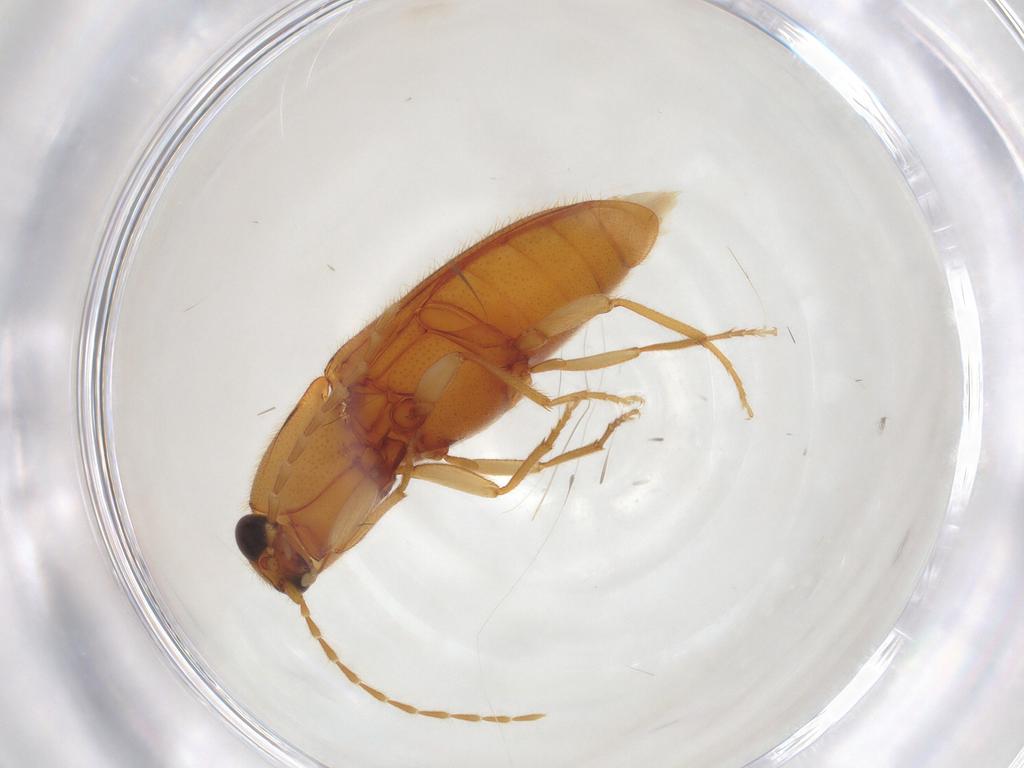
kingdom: Animalia
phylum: Arthropoda
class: Insecta
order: Coleoptera
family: Elateridae
